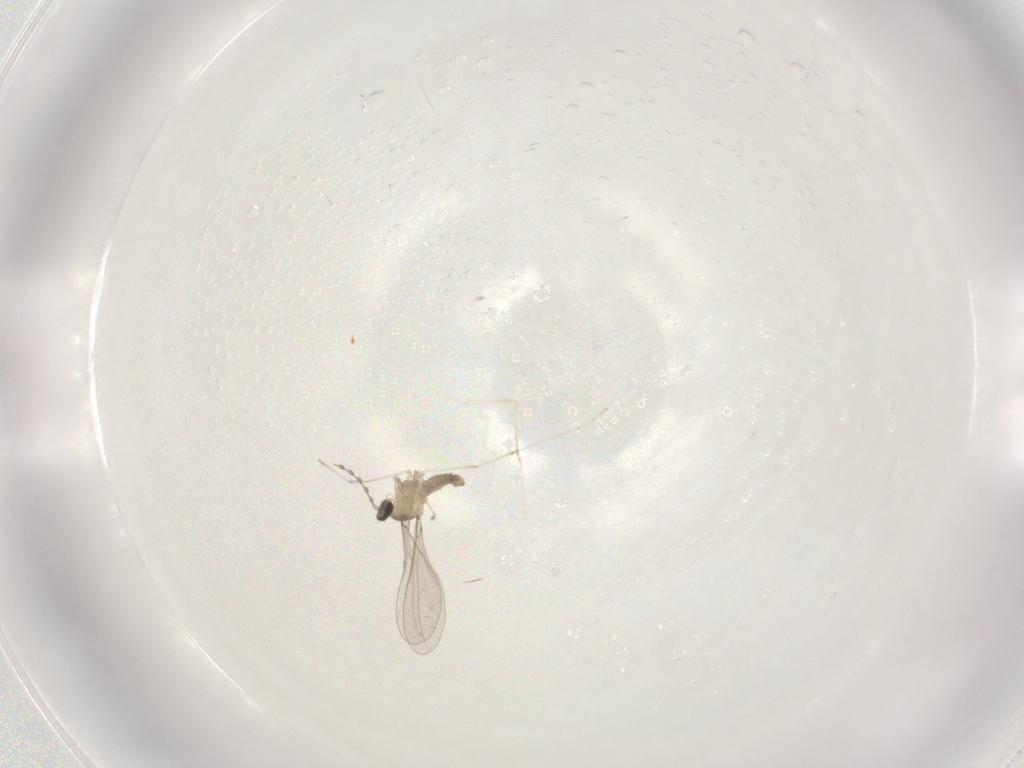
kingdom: Animalia
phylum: Arthropoda
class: Insecta
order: Diptera
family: Cecidomyiidae
